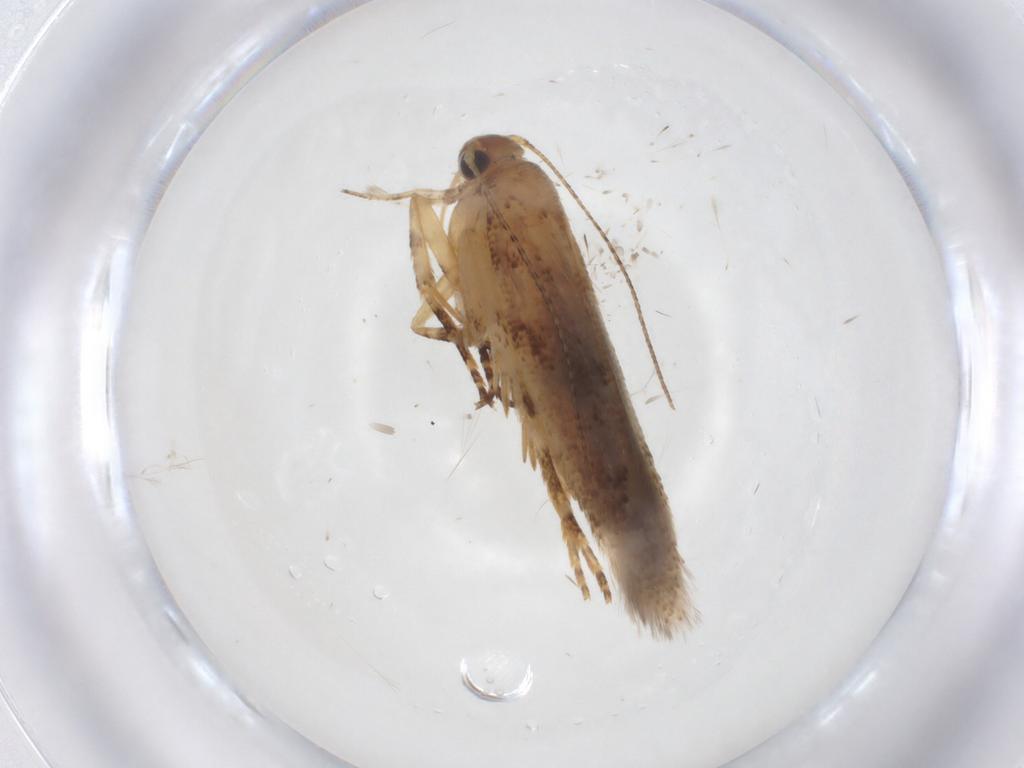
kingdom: Animalia
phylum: Arthropoda
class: Insecta
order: Lepidoptera
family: Gelechiidae
